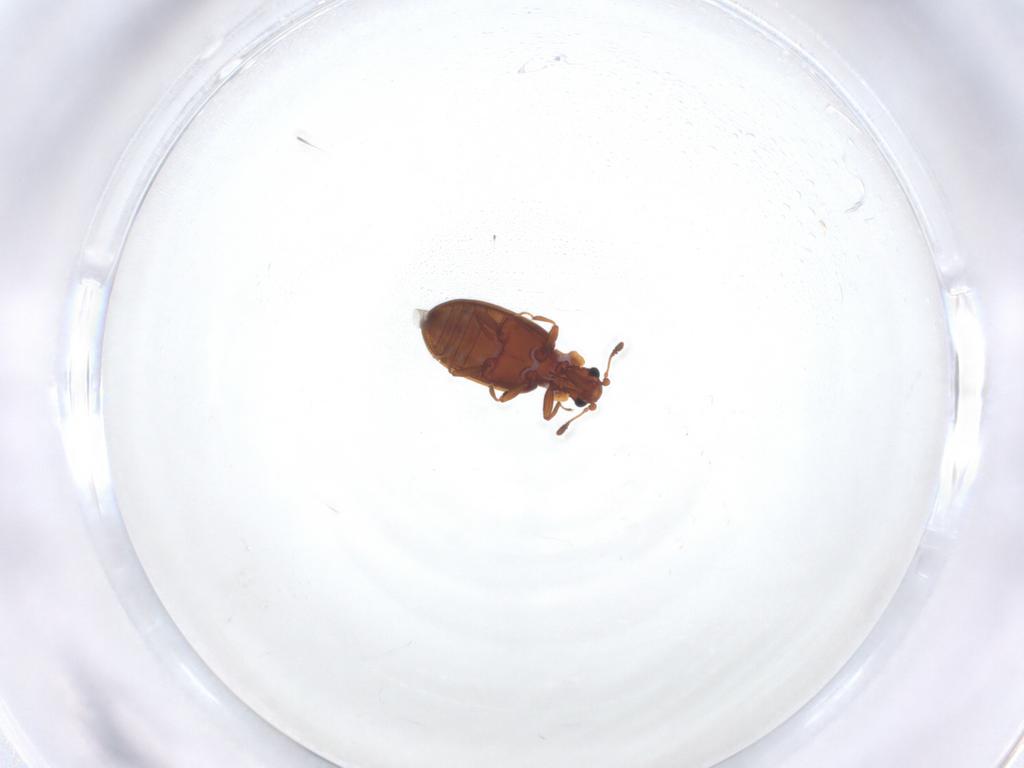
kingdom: Animalia
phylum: Arthropoda
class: Insecta
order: Coleoptera
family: Latridiidae
